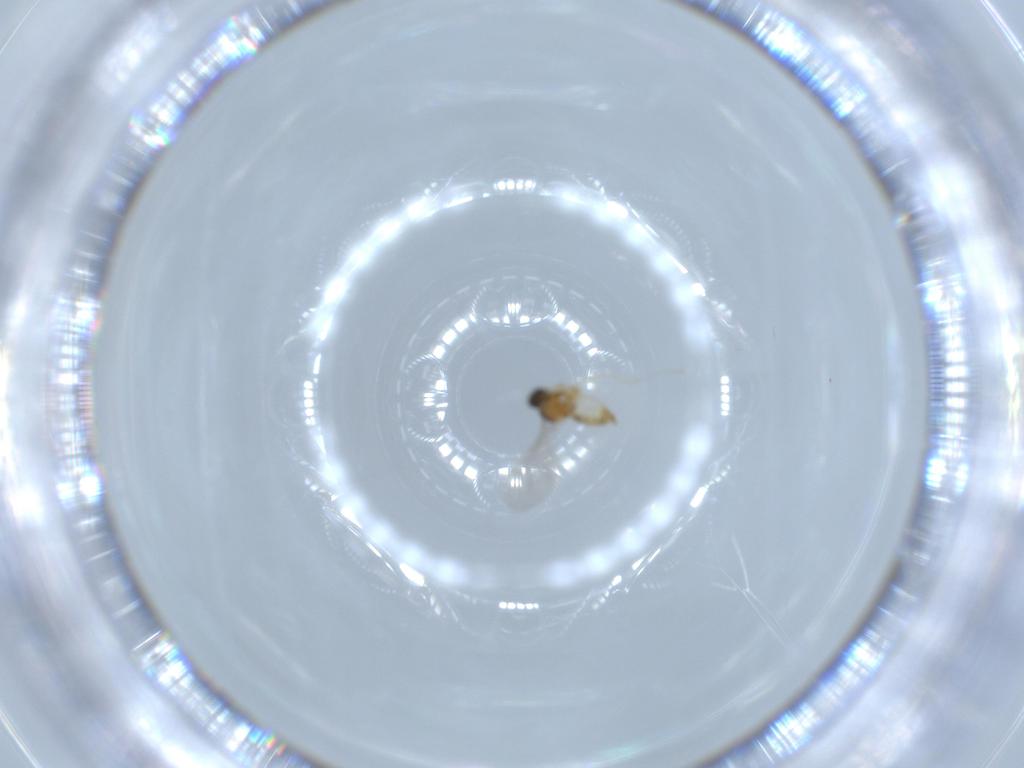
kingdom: Animalia
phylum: Arthropoda
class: Insecta
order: Diptera
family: Cecidomyiidae
